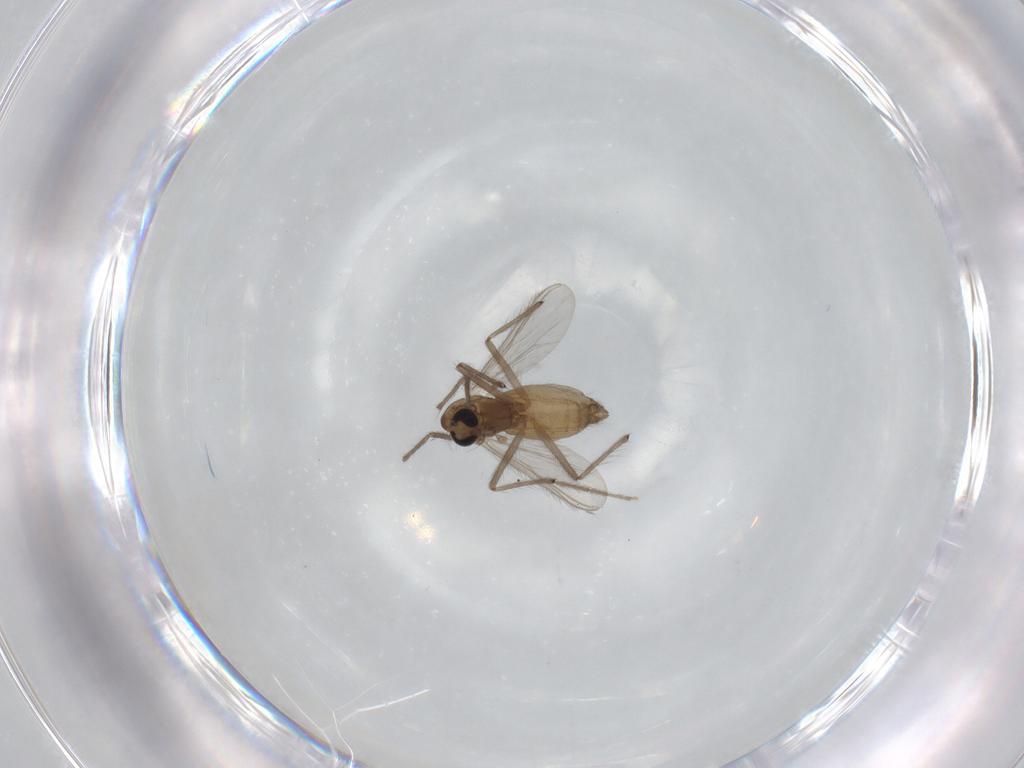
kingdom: Animalia
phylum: Arthropoda
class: Insecta
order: Diptera
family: Chironomidae
